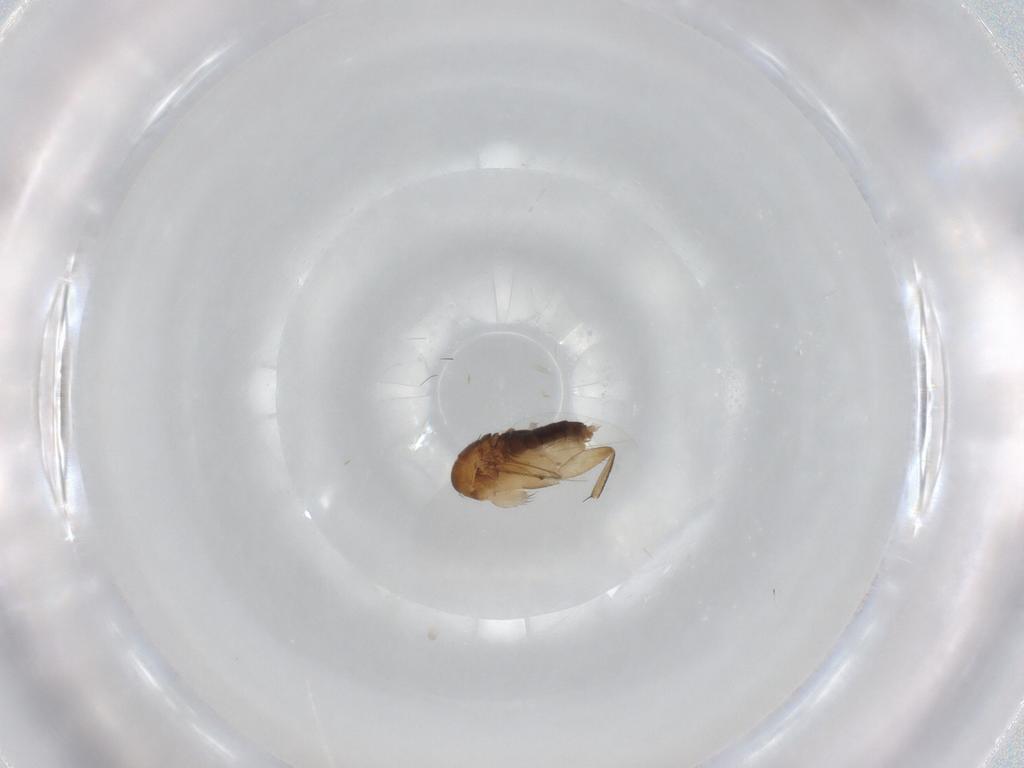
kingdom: Animalia
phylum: Arthropoda
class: Insecta
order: Diptera
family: Phoridae
